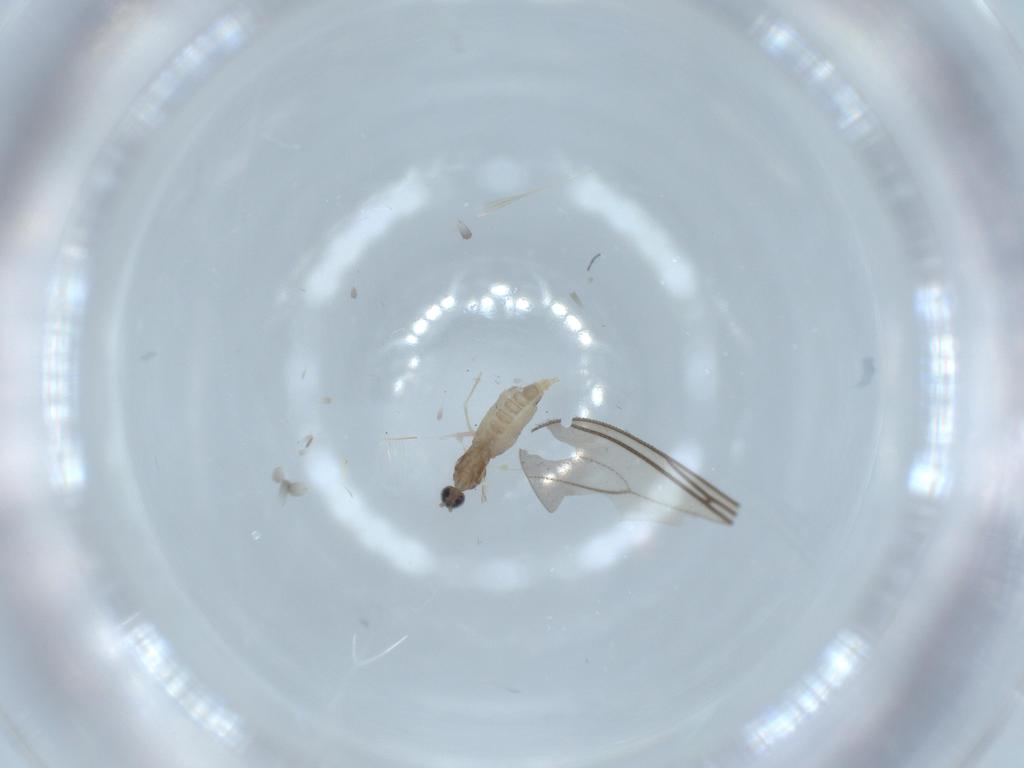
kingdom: Animalia
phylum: Arthropoda
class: Insecta
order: Diptera
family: Cecidomyiidae
